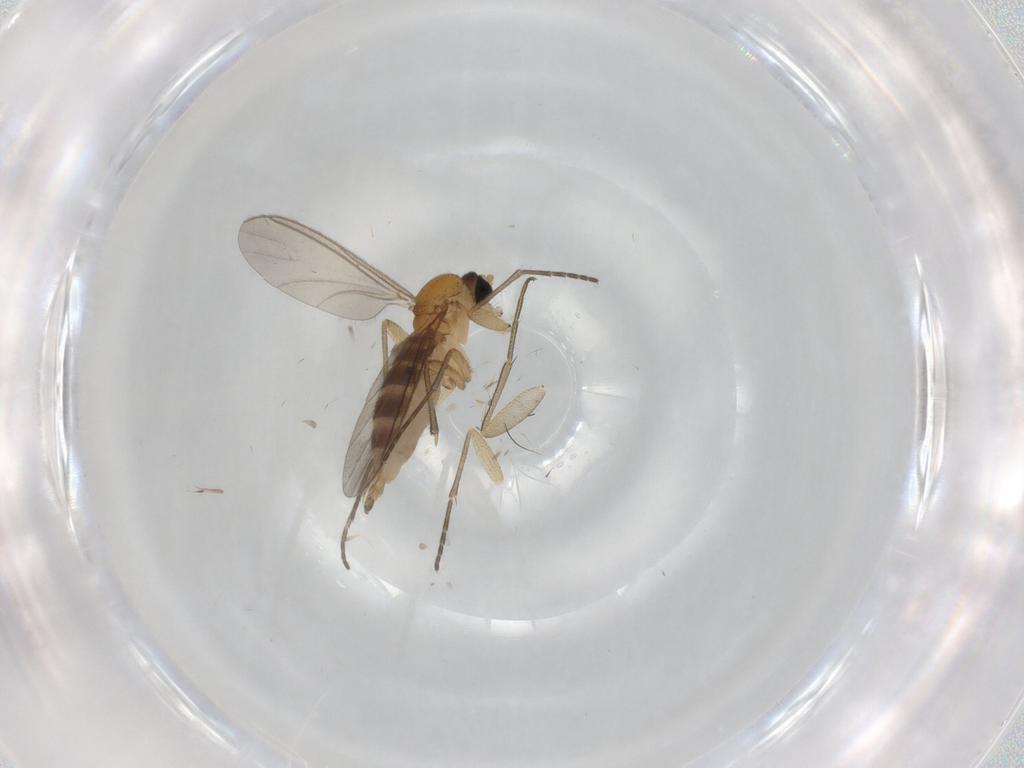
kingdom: Animalia
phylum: Arthropoda
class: Insecta
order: Diptera
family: Phoridae
